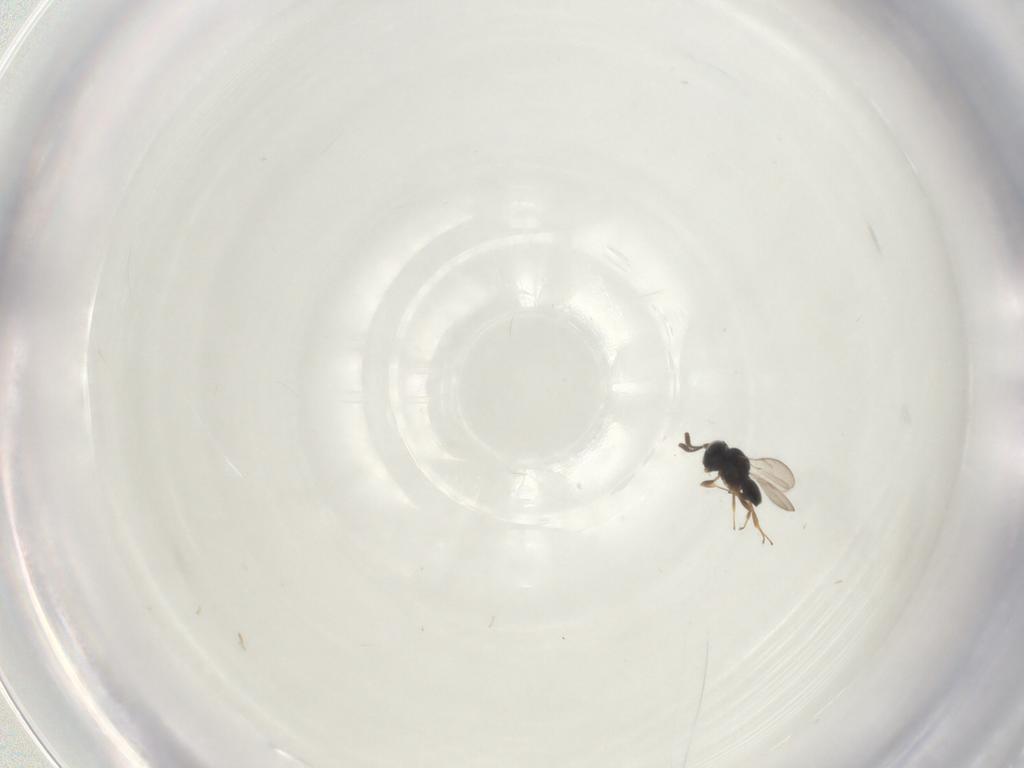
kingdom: Animalia
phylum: Arthropoda
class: Insecta
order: Hymenoptera
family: Scelionidae
